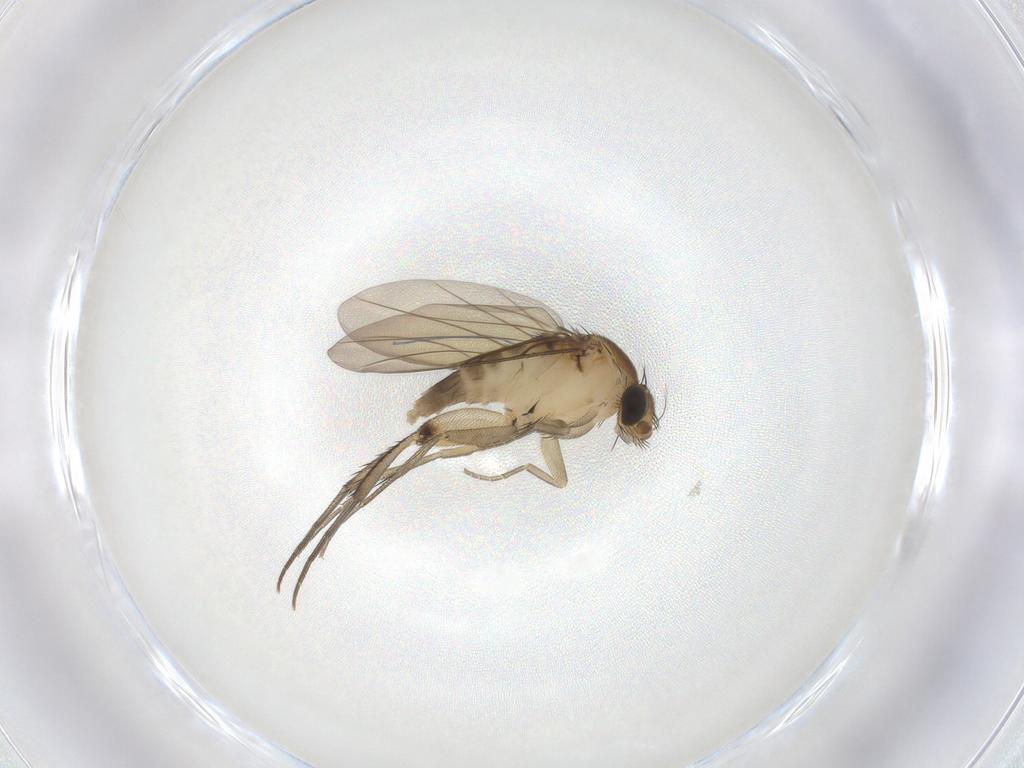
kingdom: Animalia
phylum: Arthropoda
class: Insecta
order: Diptera
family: Phoridae
